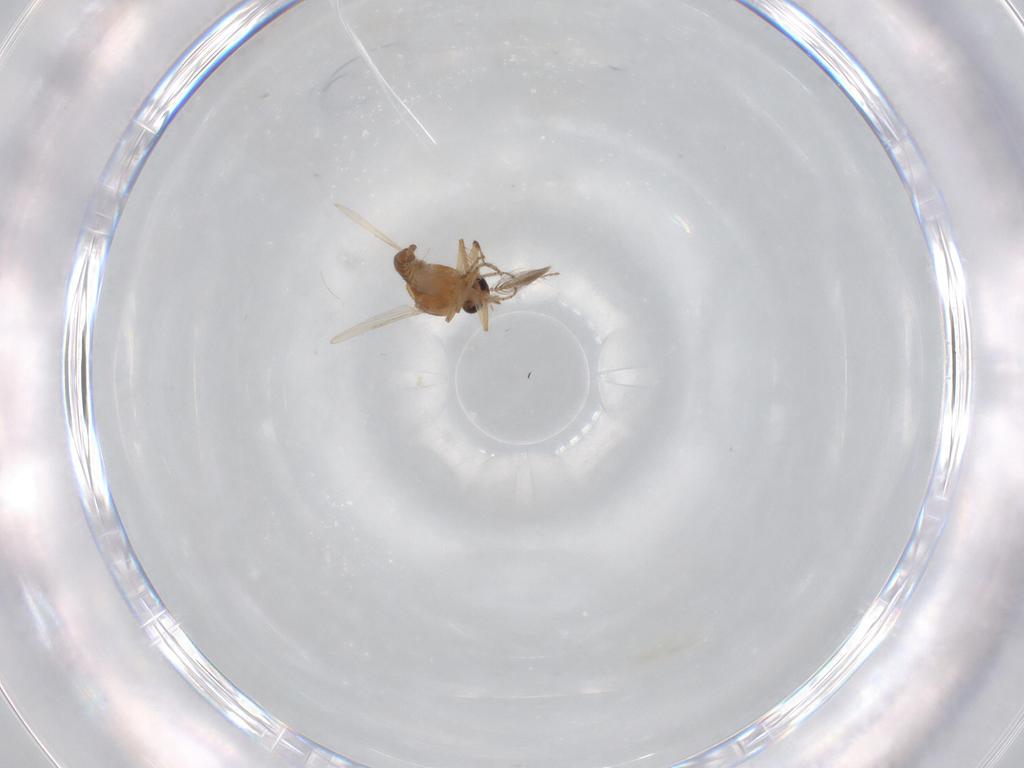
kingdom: Animalia
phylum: Arthropoda
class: Insecta
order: Diptera
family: Ceratopogonidae
